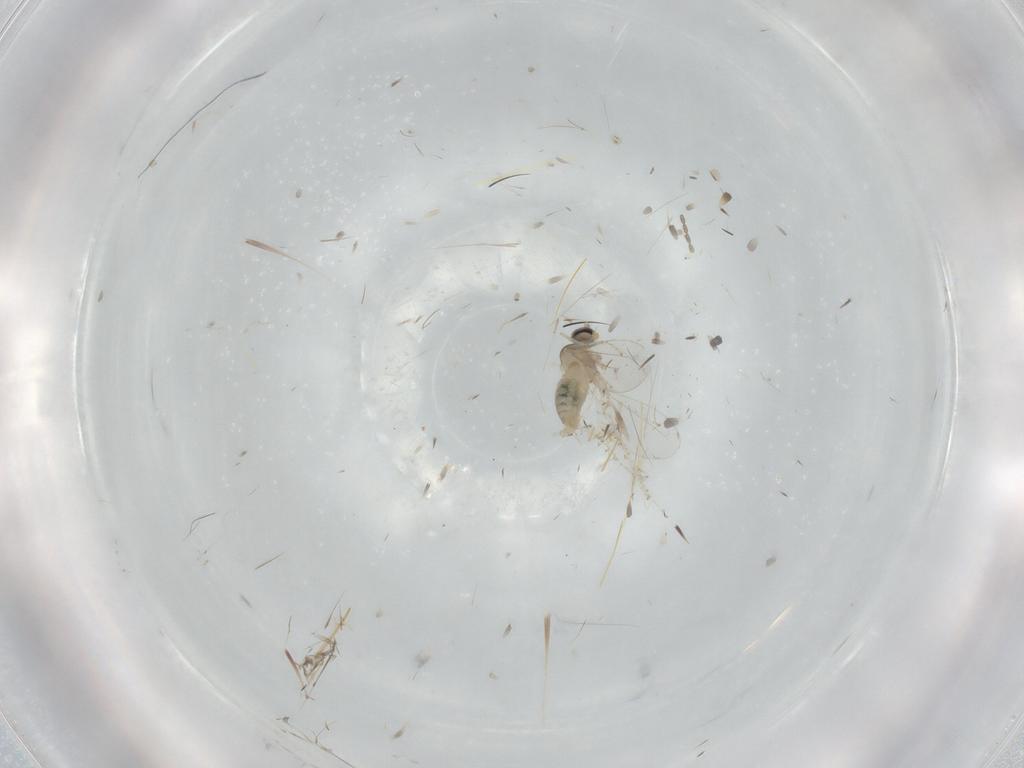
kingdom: Animalia
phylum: Arthropoda
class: Insecta
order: Diptera
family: Cecidomyiidae
